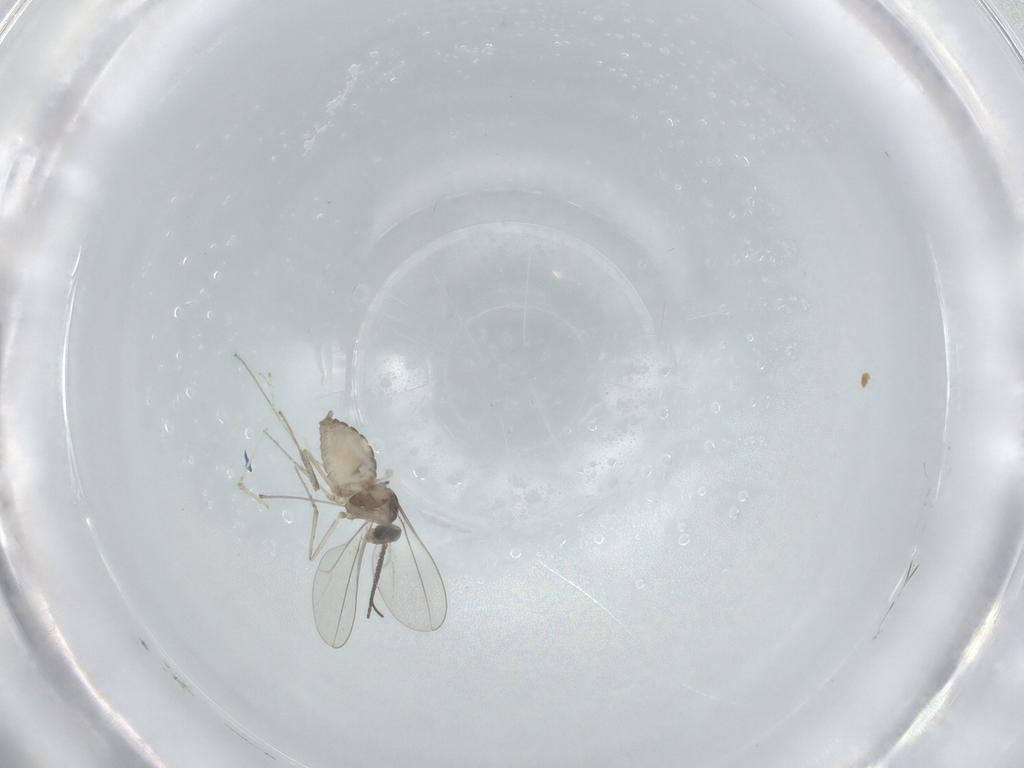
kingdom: Animalia
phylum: Arthropoda
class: Insecta
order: Diptera
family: Cecidomyiidae
